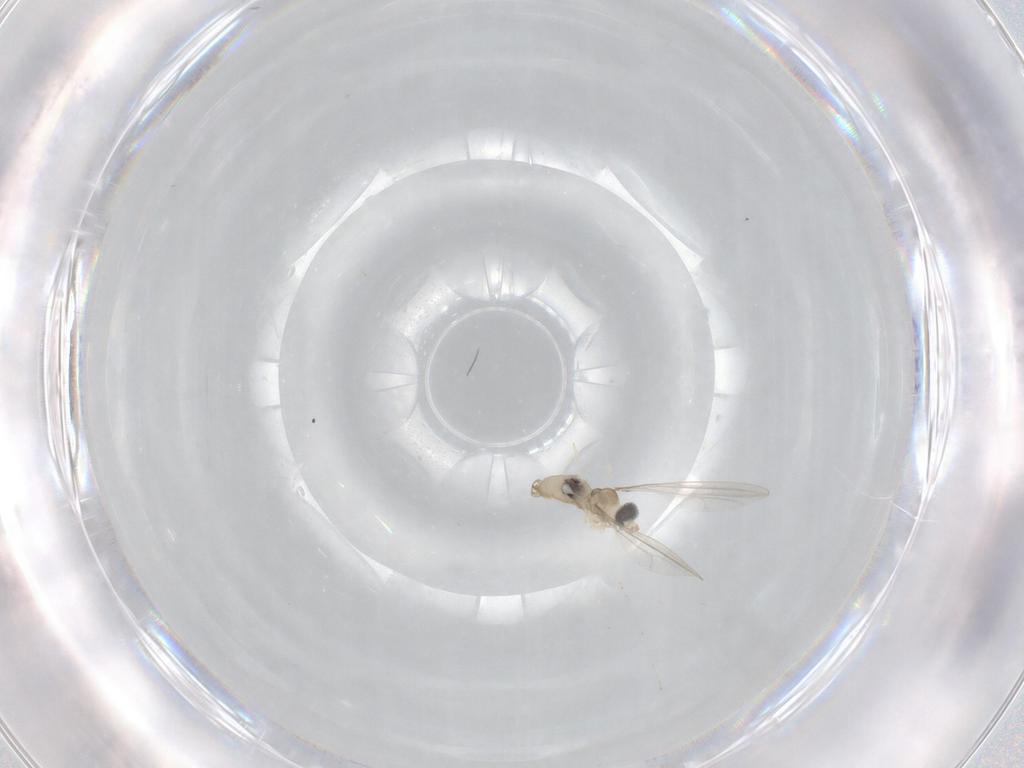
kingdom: Animalia
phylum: Arthropoda
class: Insecta
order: Diptera
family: Cecidomyiidae
